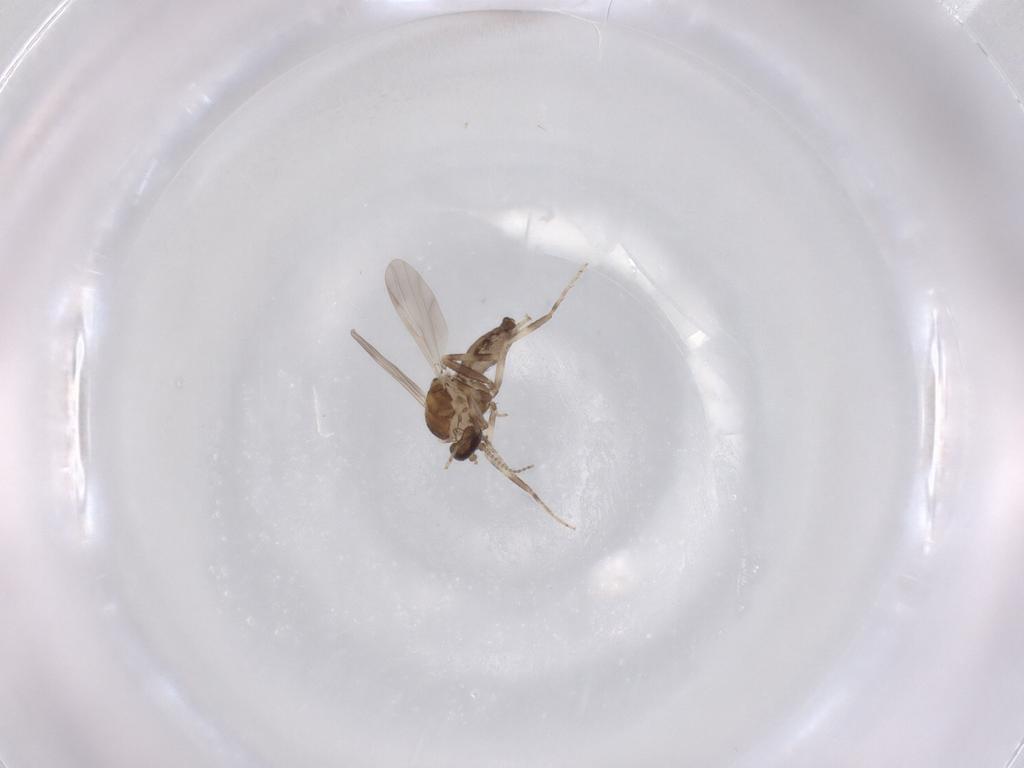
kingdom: Animalia
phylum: Arthropoda
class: Insecta
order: Diptera
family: Ceratopogonidae
